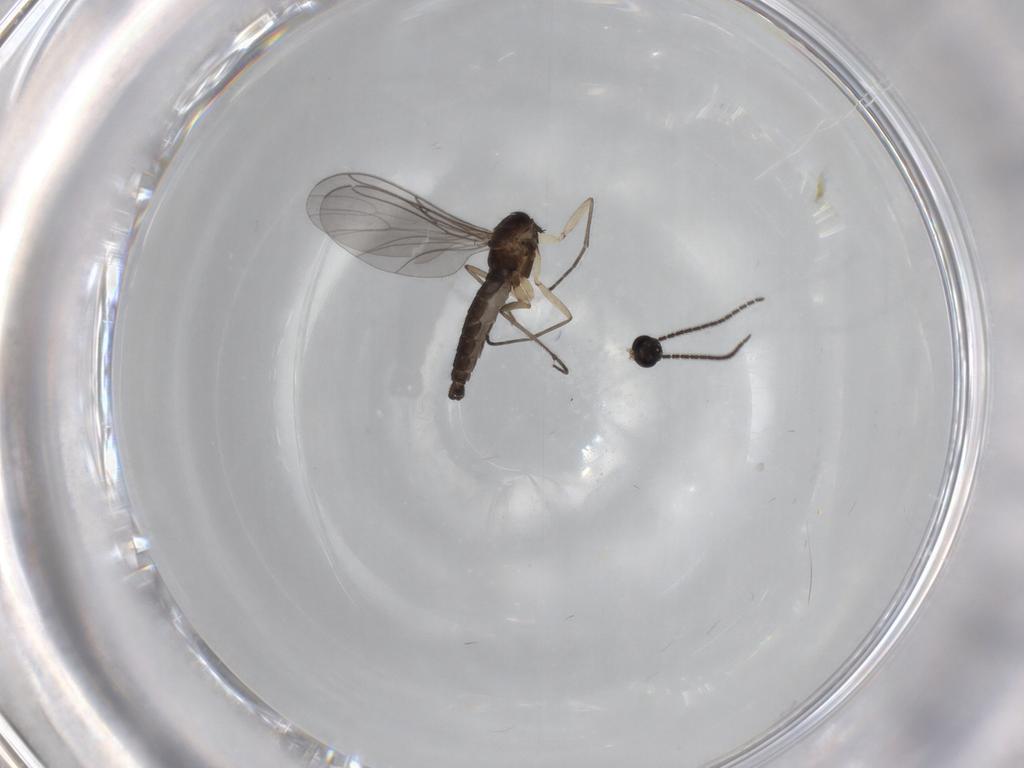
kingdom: Animalia
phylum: Arthropoda
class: Insecta
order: Diptera
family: Sciaridae
